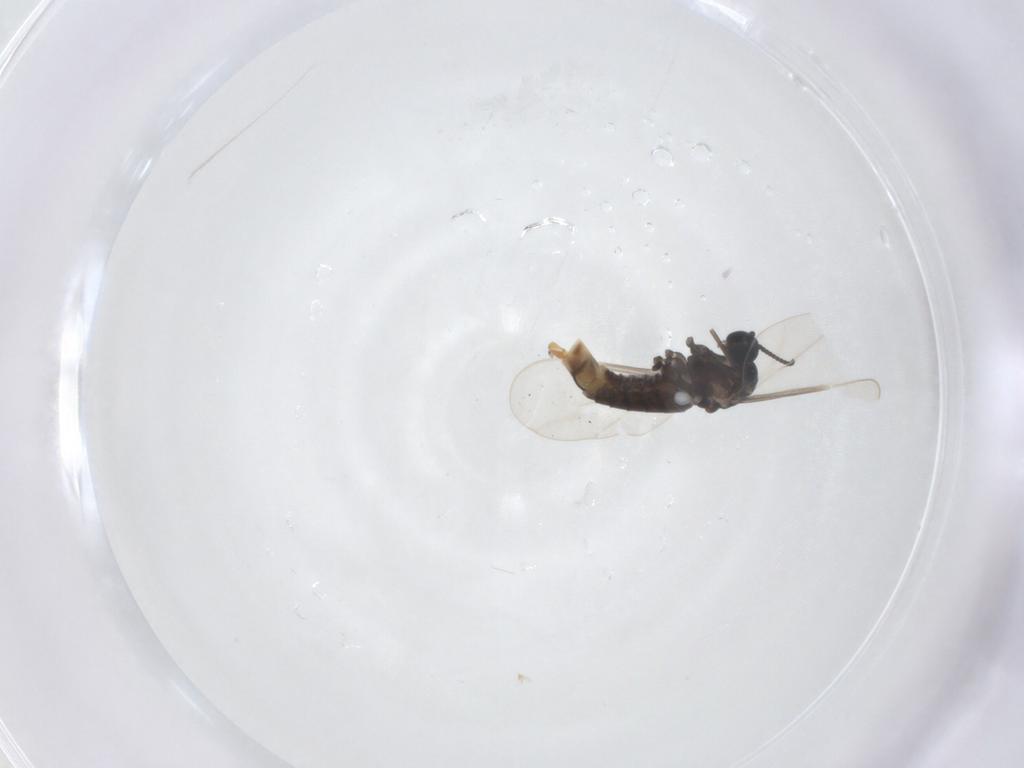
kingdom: Animalia
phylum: Arthropoda
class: Insecta
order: Diptera
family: Cecidomyiidae
